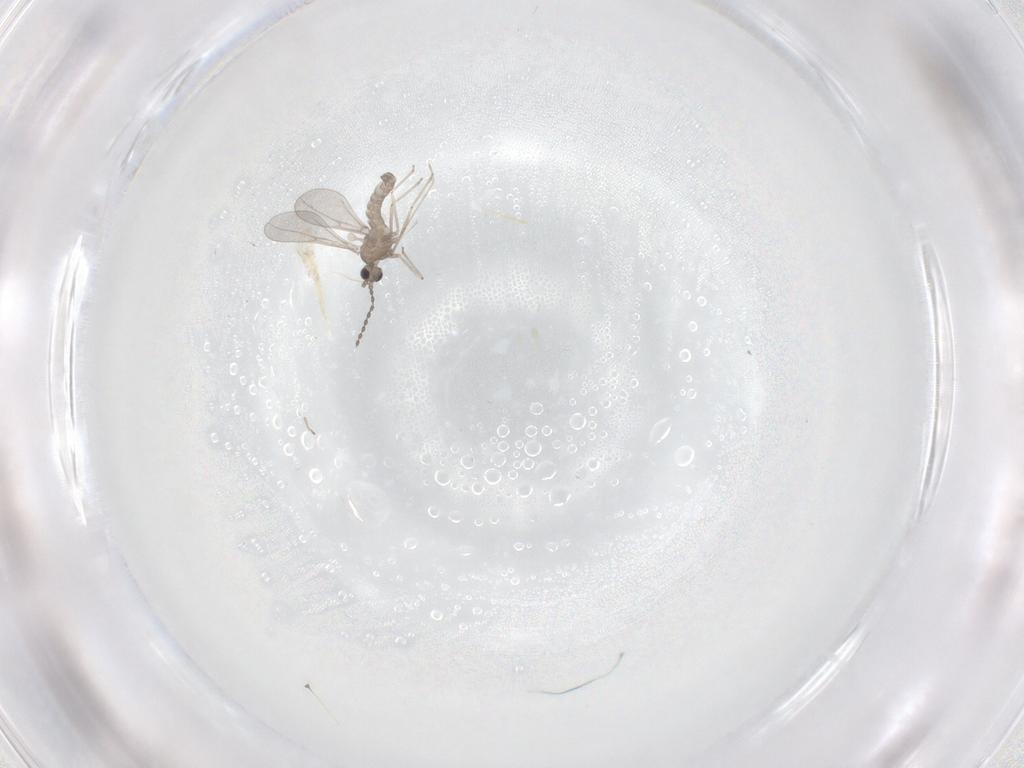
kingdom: Animalia
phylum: Arthropoda
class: Insecta
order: Diptera
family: Cecidomyiidae
